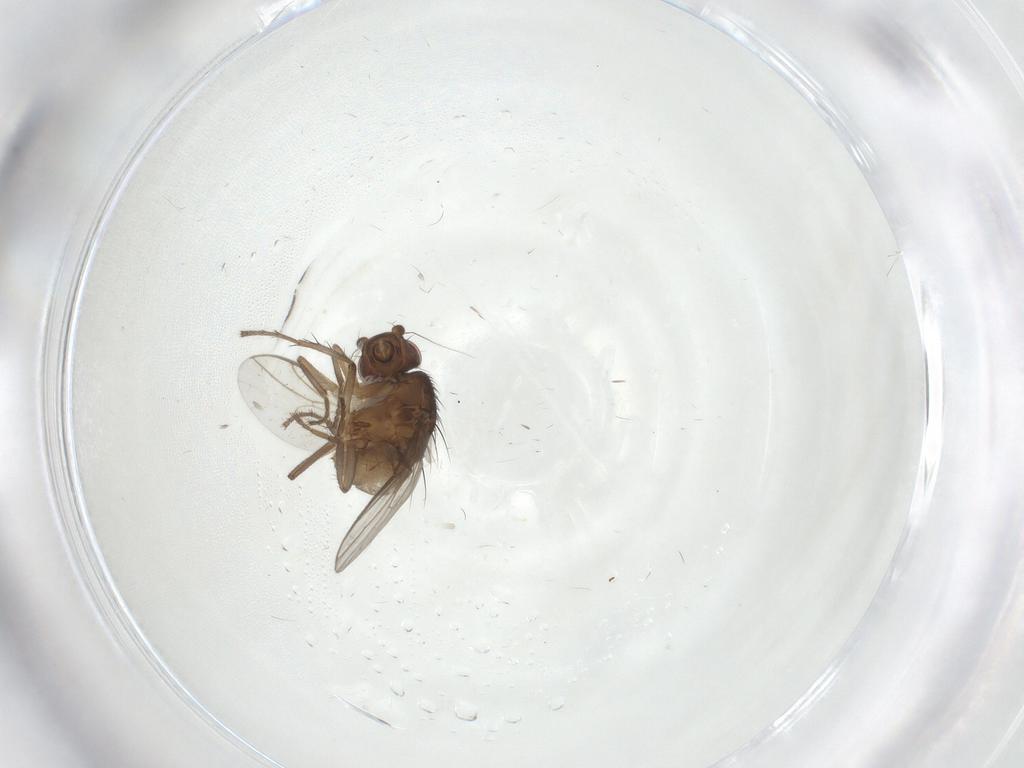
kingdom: Animalia
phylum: Arthropoda
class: Insecta
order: Diptera
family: Sphaeroceridae
